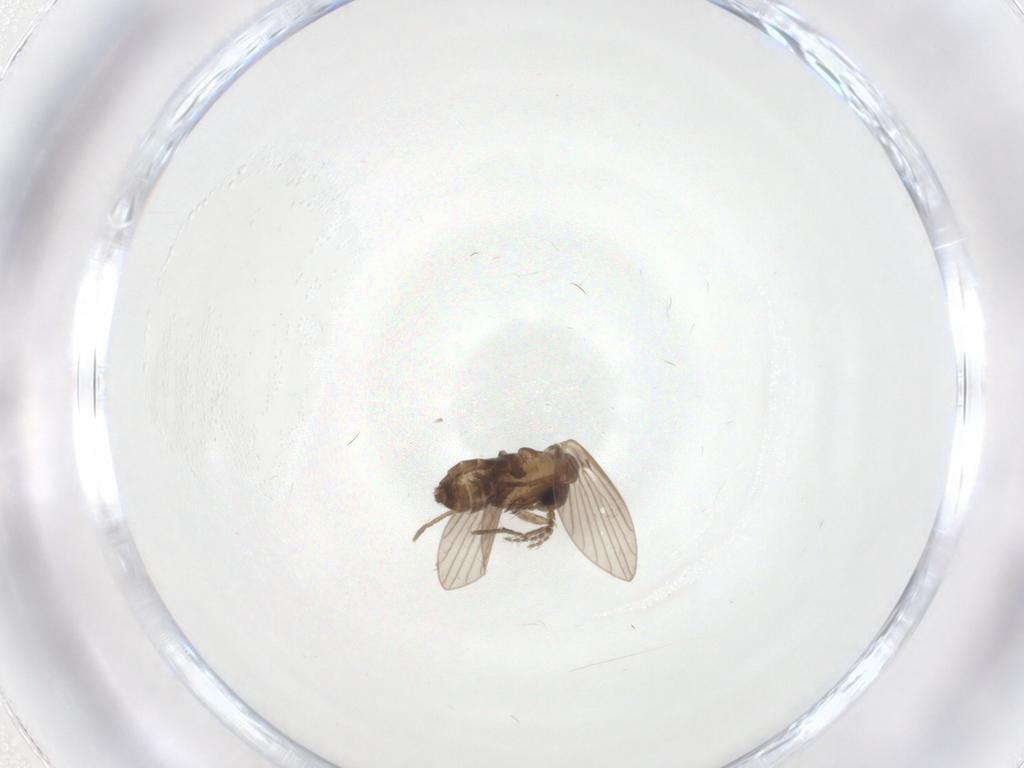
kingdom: Animalia
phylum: Arthropoda
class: Insecta
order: Diptera
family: Psychodidae
